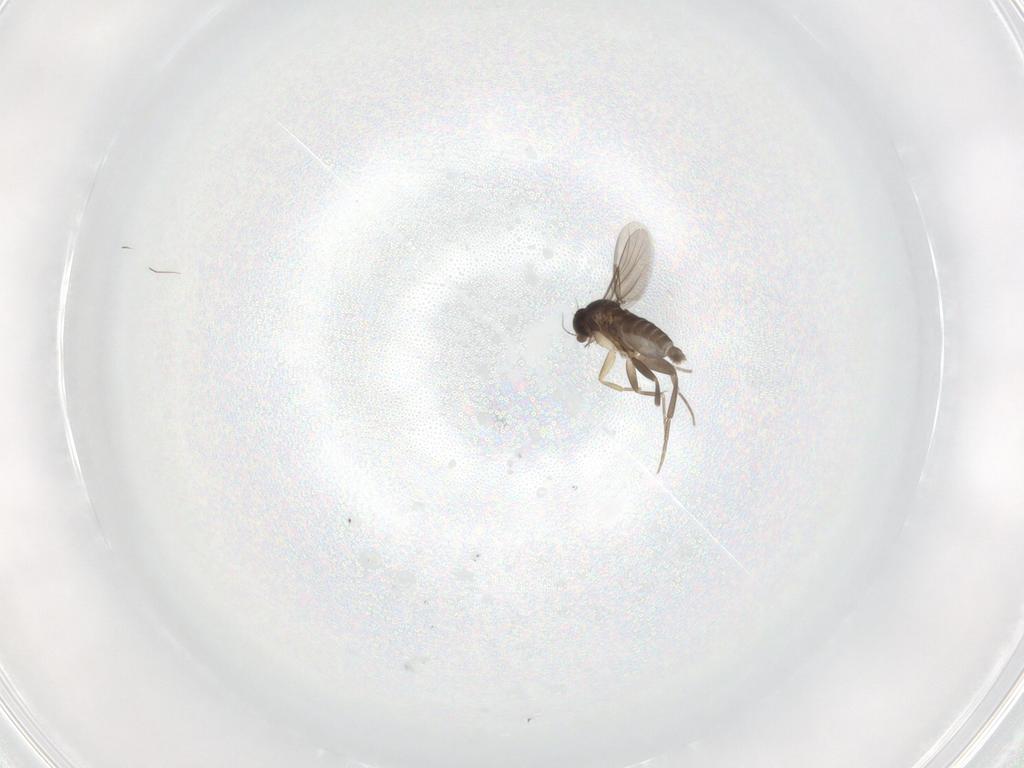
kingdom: Animalia
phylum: Arthropoda
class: Insecta
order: Diptera
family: Phoridae
